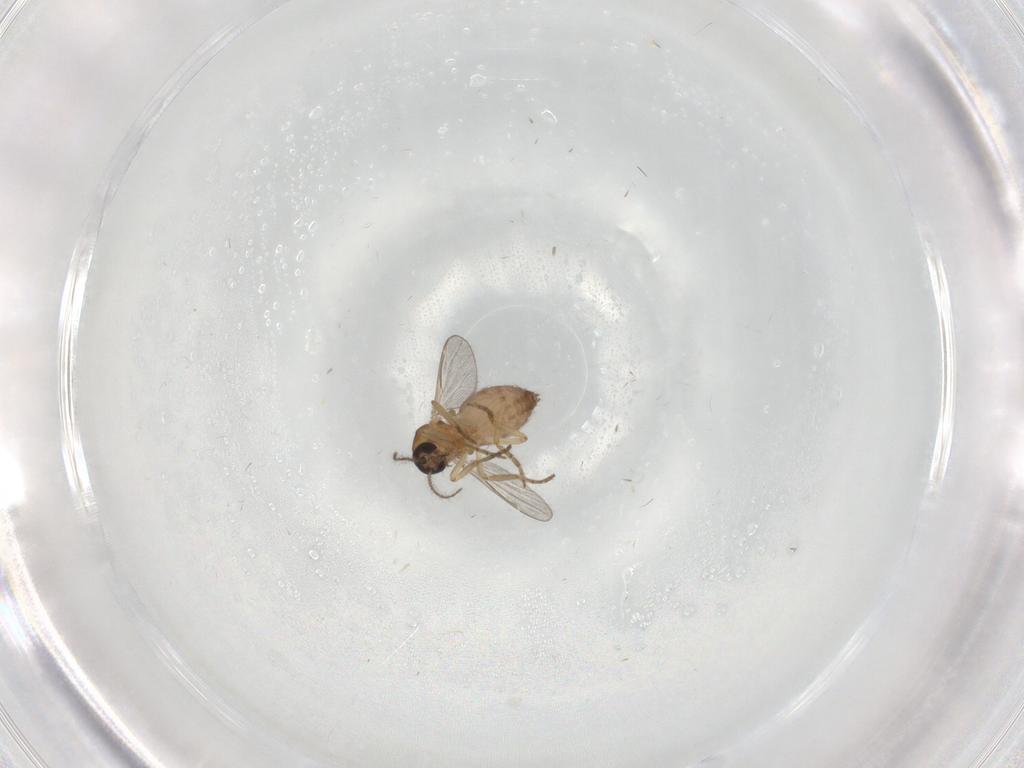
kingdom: Animalia
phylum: Arthropoda
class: Insecta
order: Diptera
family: Ceratopogonidae
